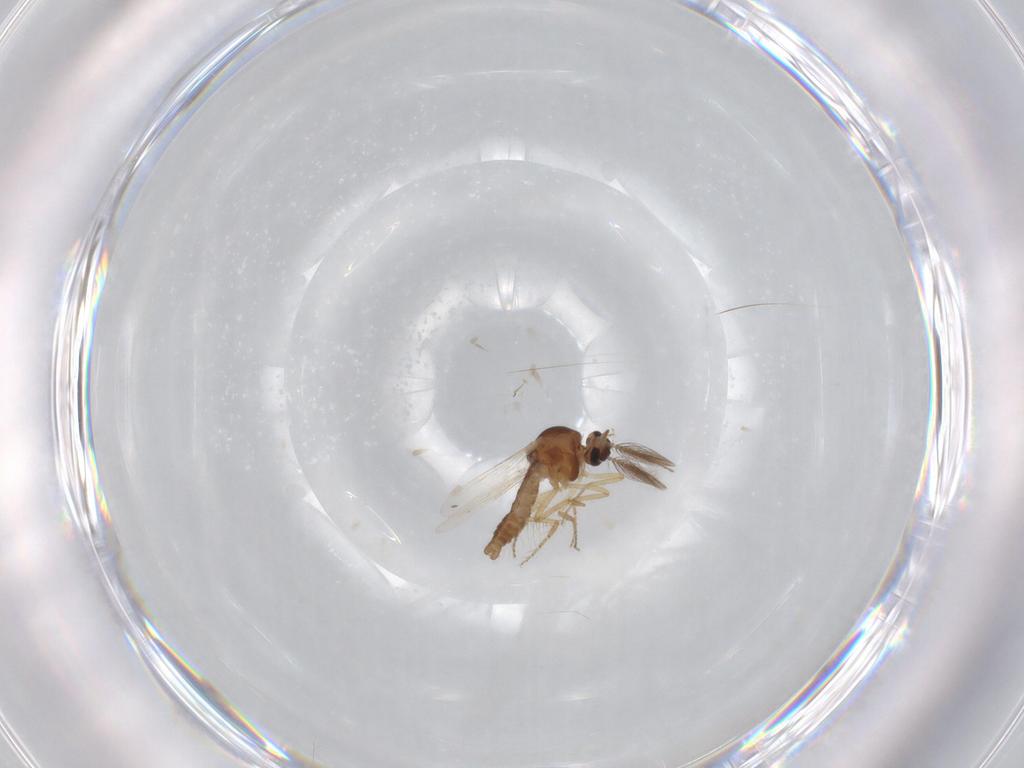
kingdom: Animalia
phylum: Arthropoda
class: Insecta
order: Diptera
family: Ceratopogonidae
